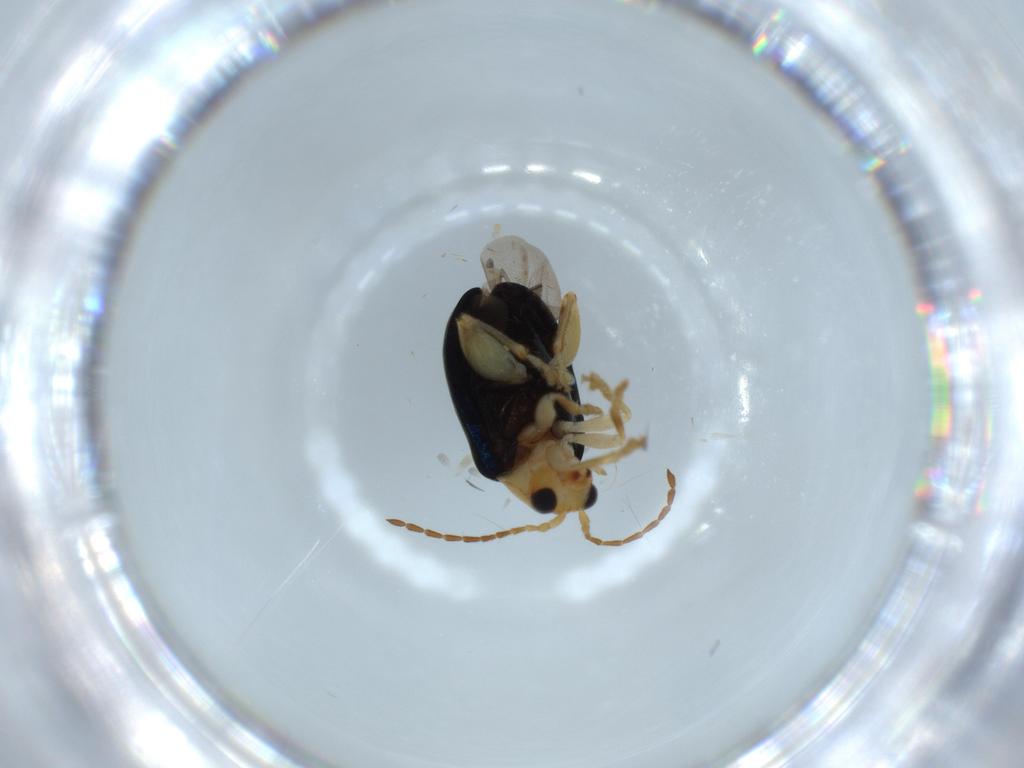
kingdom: Animalia
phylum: Arthropoda
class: Insecta
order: Coleoptera
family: Chrysomelidae
